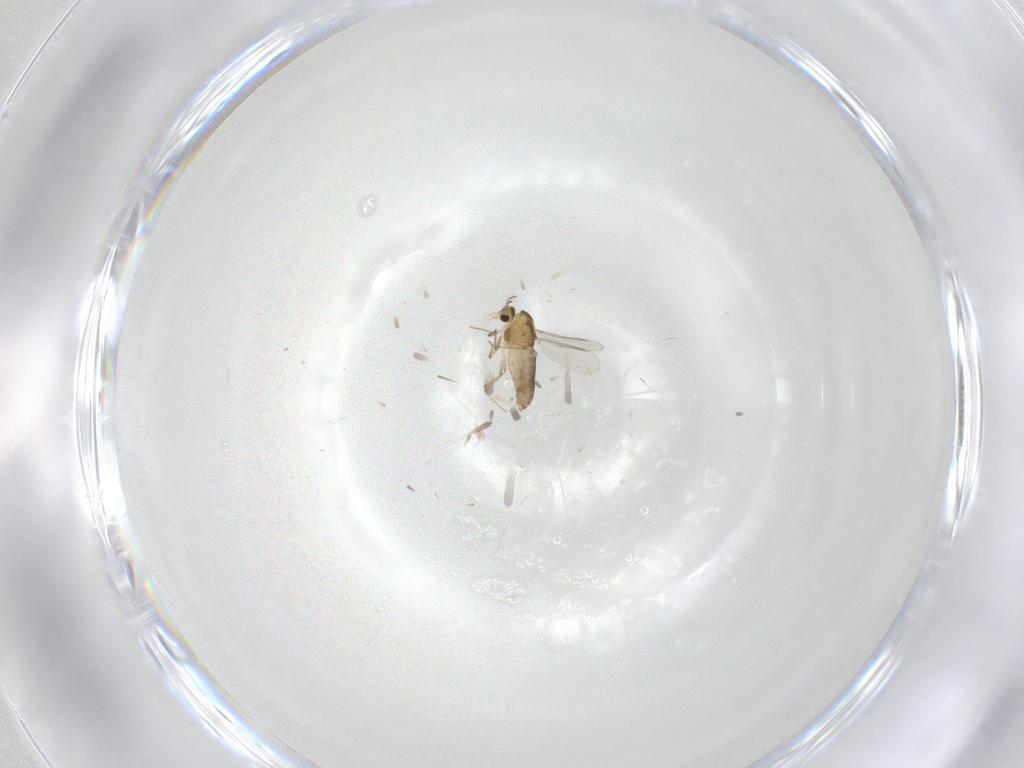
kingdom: Animalia
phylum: Arthropoda
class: Insecta
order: Diptera
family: Chironomidae
